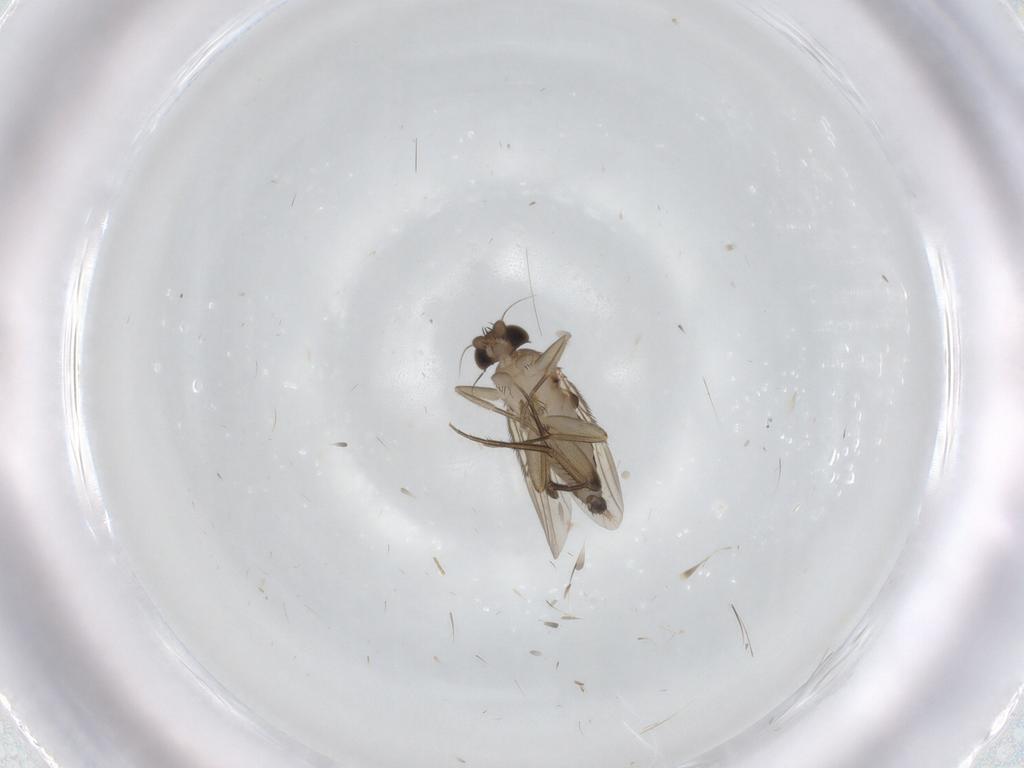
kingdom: Animalia
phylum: Arthropoda
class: Insecta
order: Diptera
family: Phoridae
